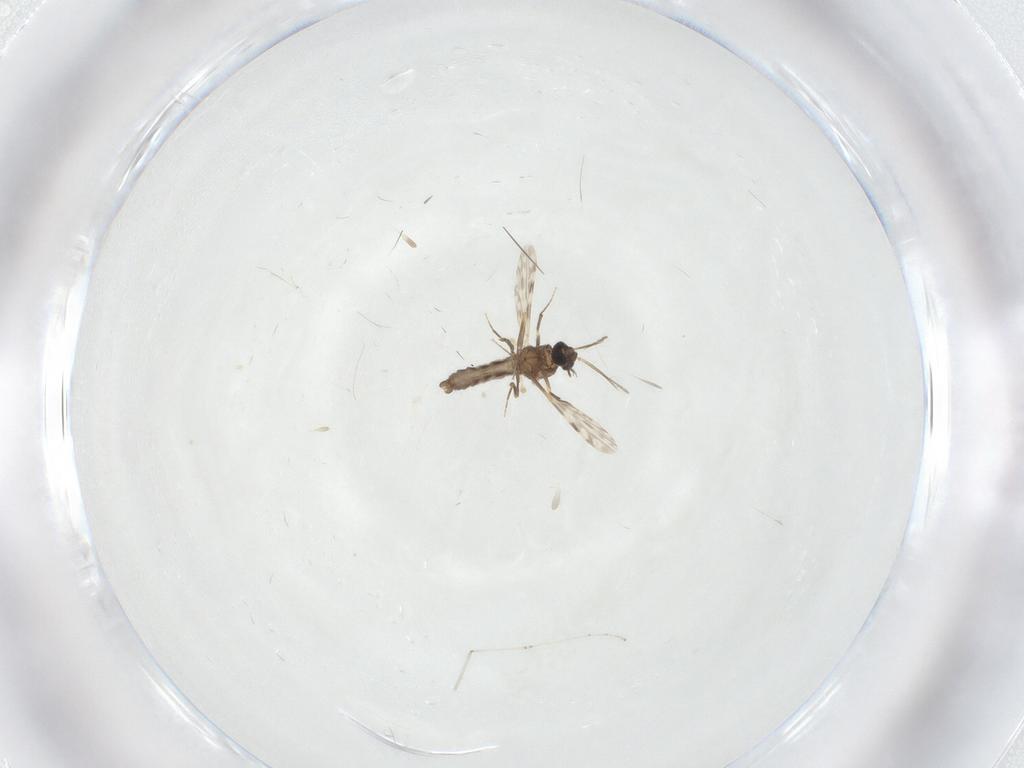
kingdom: Animalia
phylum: Arthropoda
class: Insecta
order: Diptera
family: Ceratopogonidae
